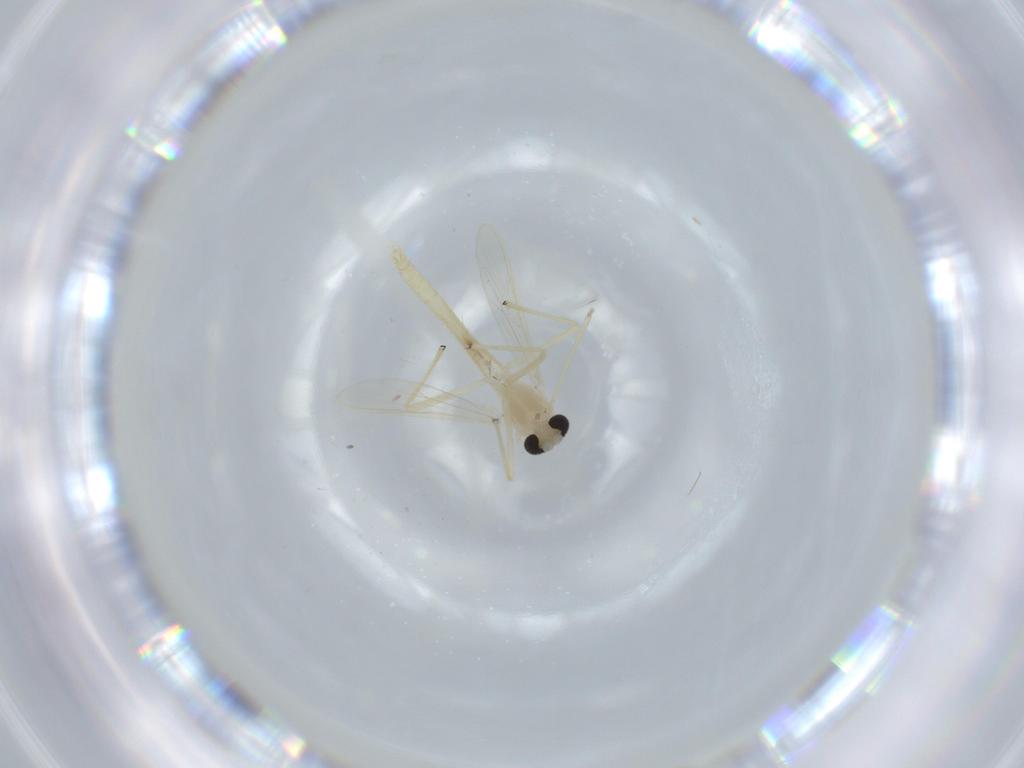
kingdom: Animalia
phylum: Arthropoda
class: Insecta
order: Diptera
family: Chironomidae
